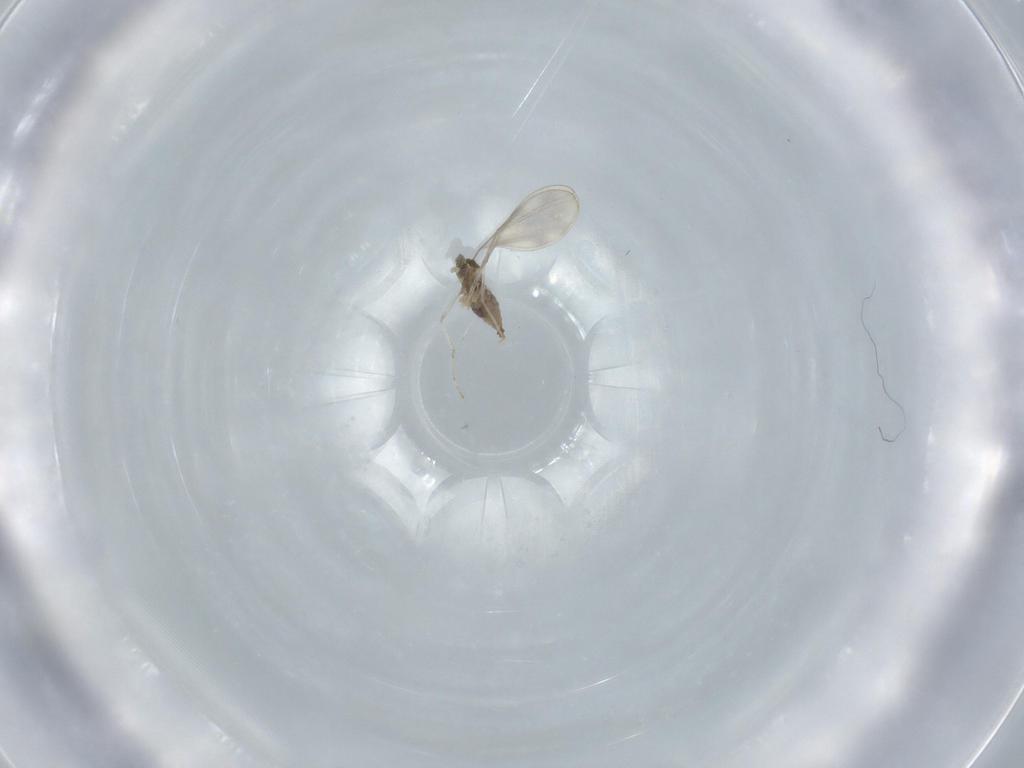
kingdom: Animalia
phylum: Arthropoda
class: Insecta
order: Diptera
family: Cecidomyiidae
